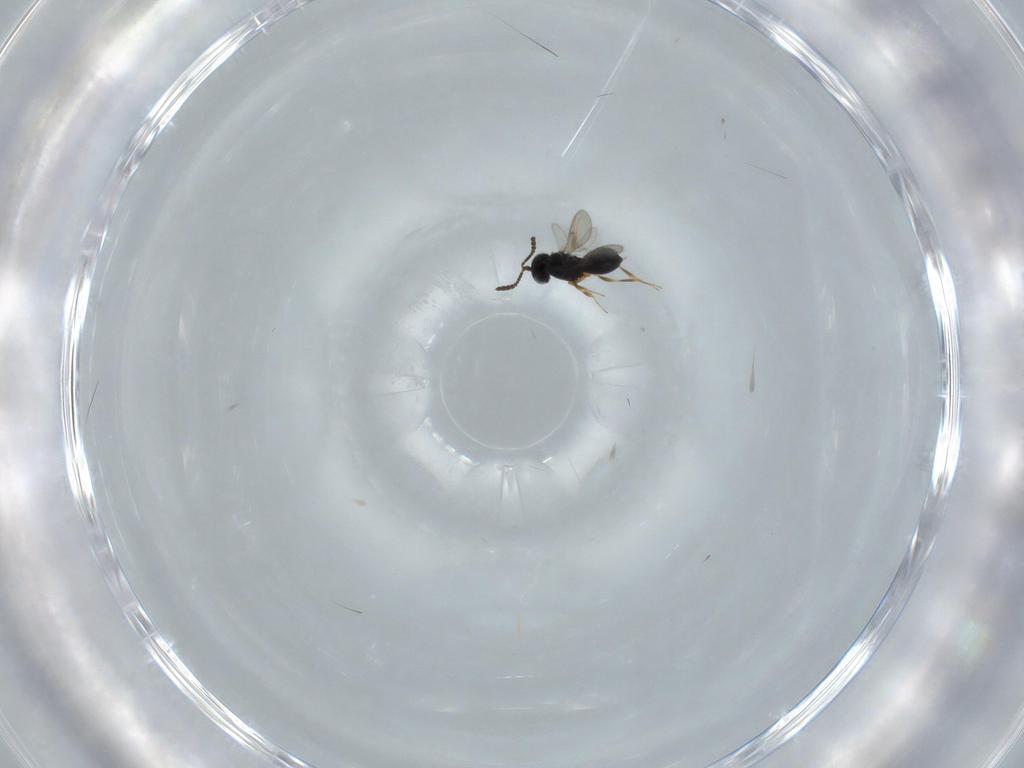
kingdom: Animalia
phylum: Arthropoda
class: Insecta
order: Hymenoptera
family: Scelionidae
